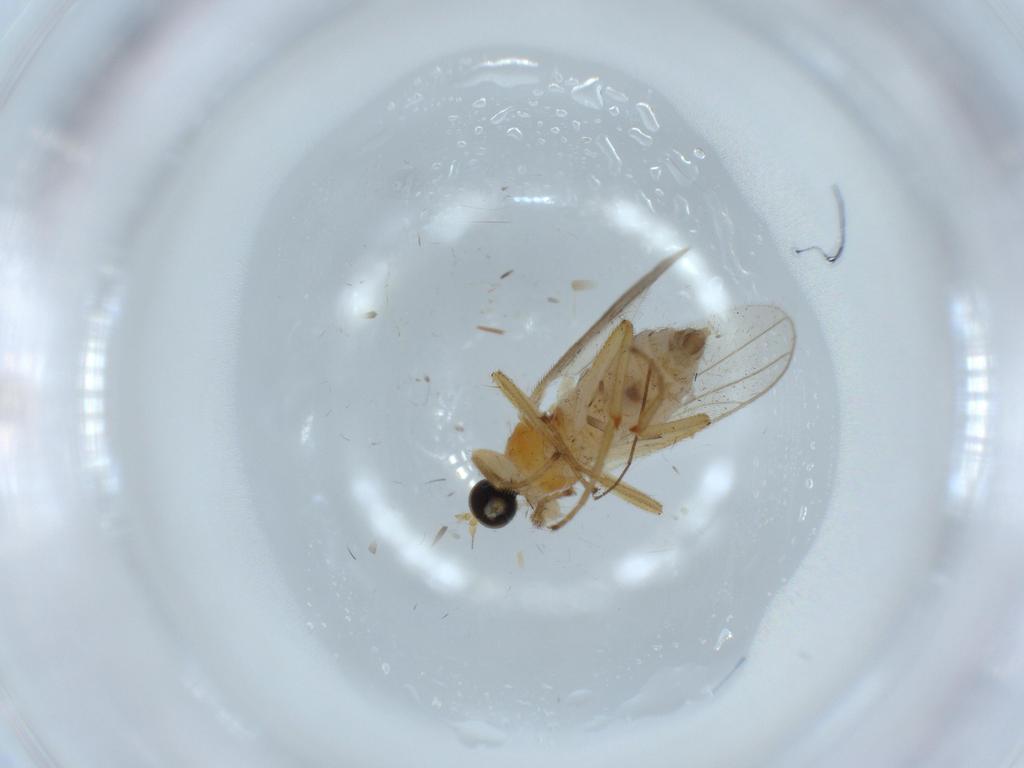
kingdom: Animalia
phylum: Arthropoda
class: Insecta
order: Diptera
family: Hybotidae
